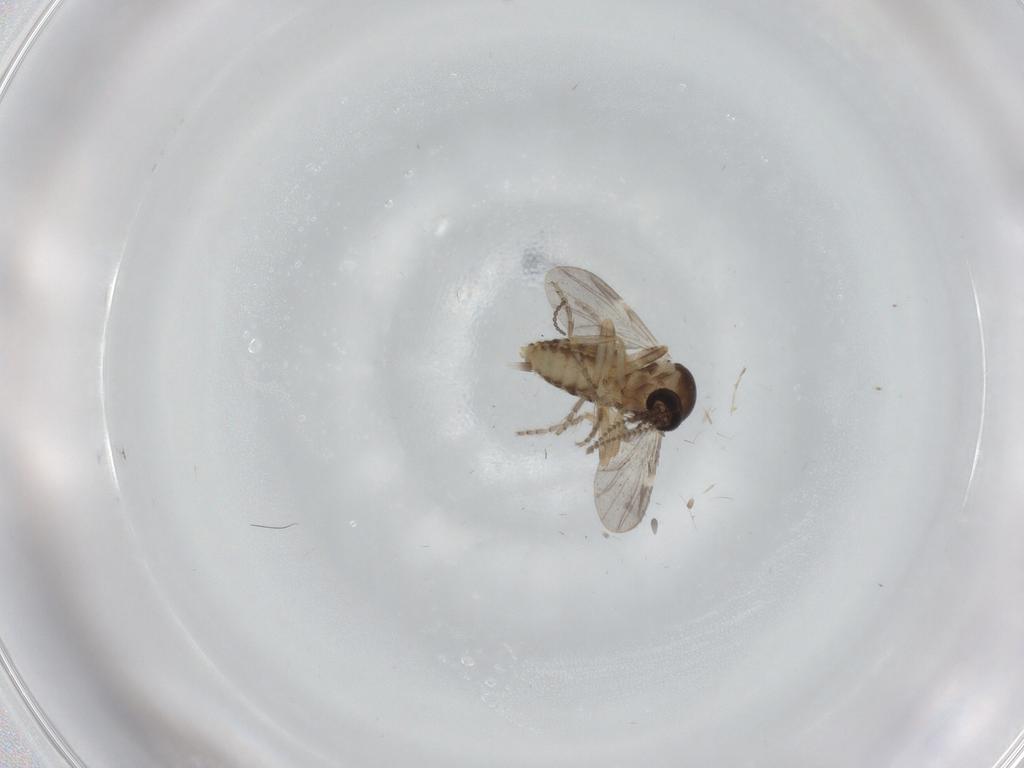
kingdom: Animalia
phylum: Arthropoda
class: Insecta
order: Diptera
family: Ceratopogonidae
